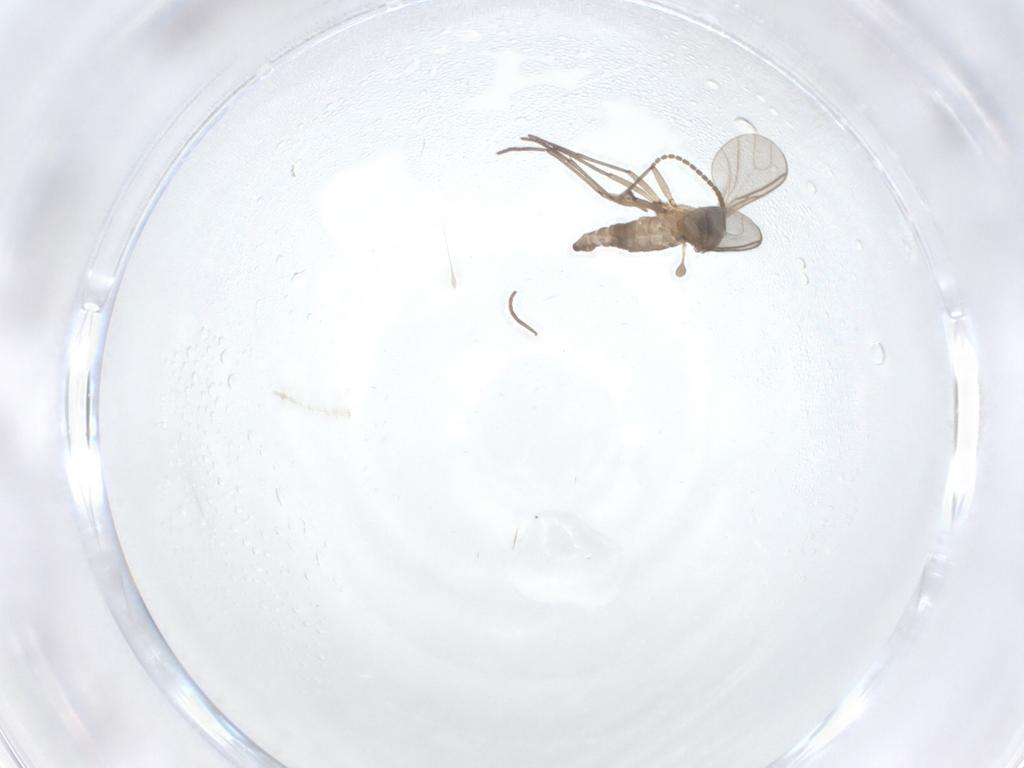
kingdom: Animalia
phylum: Arthropoda
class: Insecta
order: Diptera
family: Sciaridae
